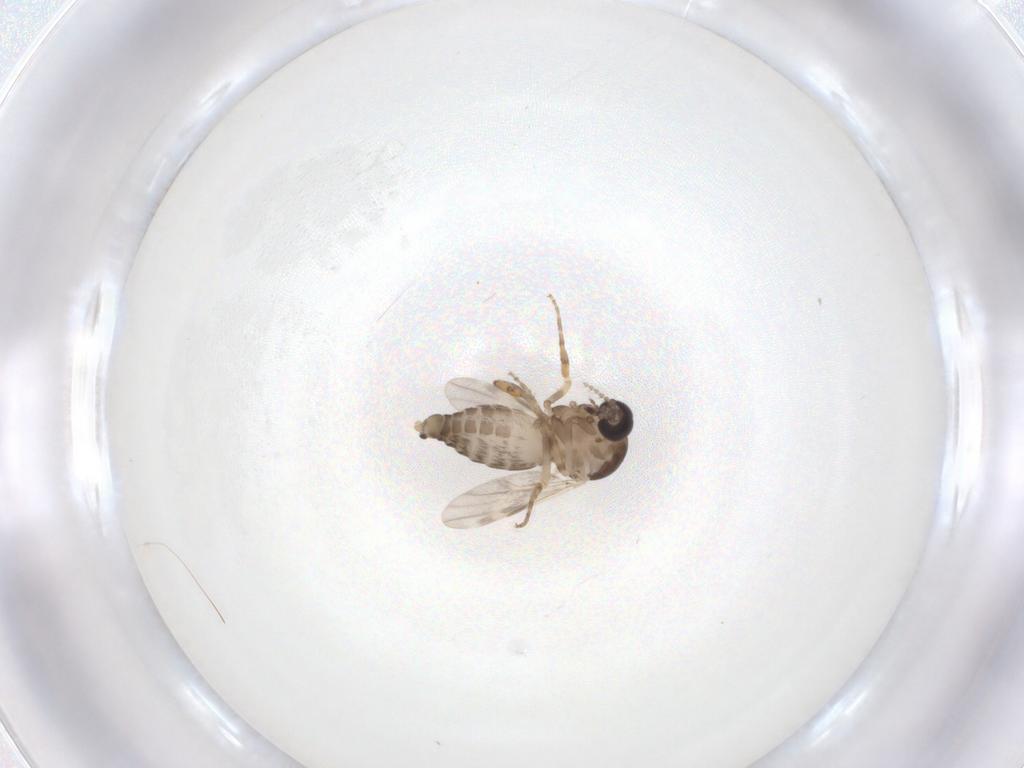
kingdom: Animalia
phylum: Arthropoda
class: Insecta
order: Diptera
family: Ceratopogonidae
